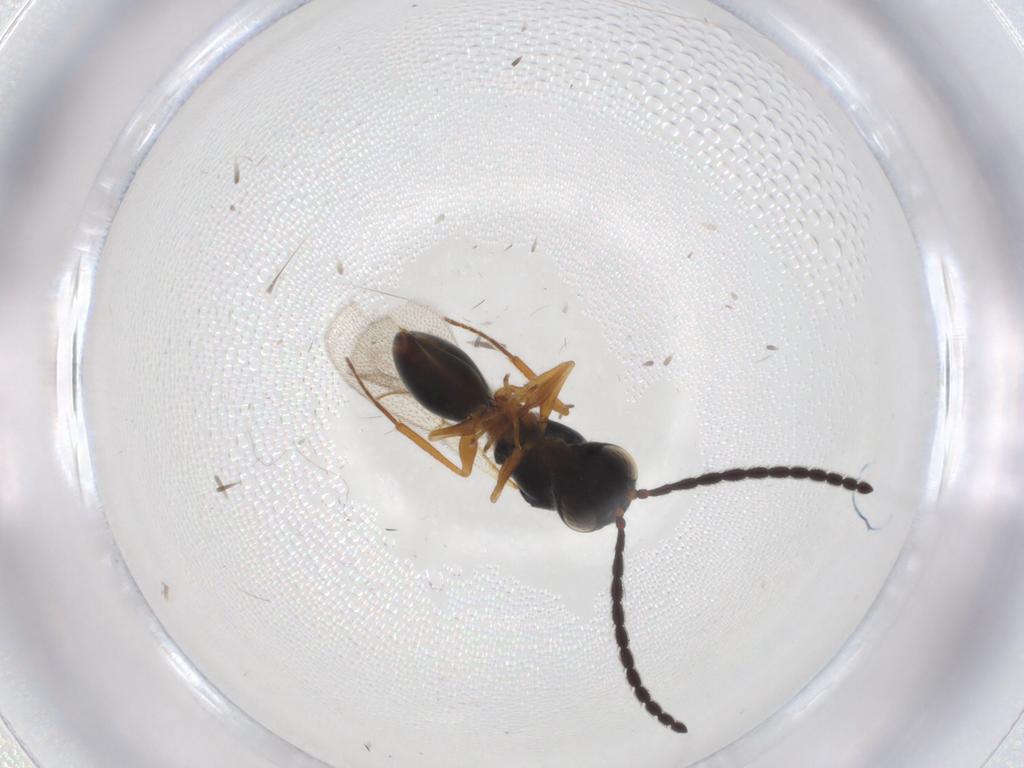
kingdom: Animalia
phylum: Arthropoda
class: Insecta
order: Hymenoptera
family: Figitidae
